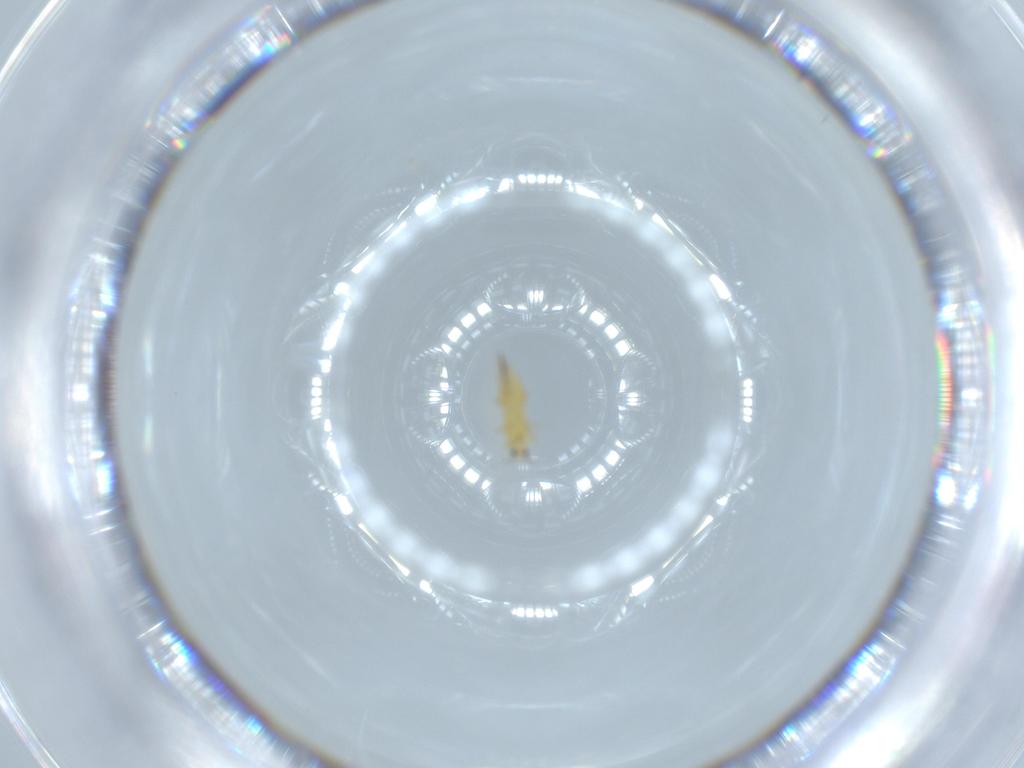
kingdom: Animalia
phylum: Arthropoda
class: Insecta
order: Thysanoptera
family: Thripidae
